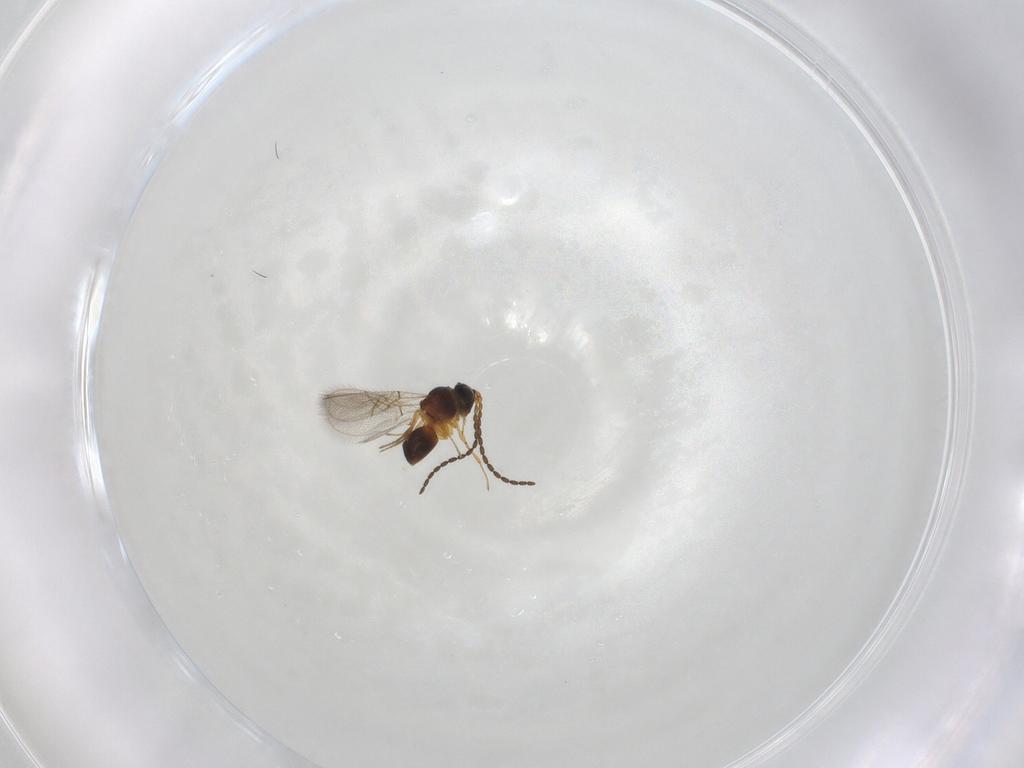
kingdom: Animalia
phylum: Arthropoda
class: Insecta
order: Hymenoptera
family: Figitidae
